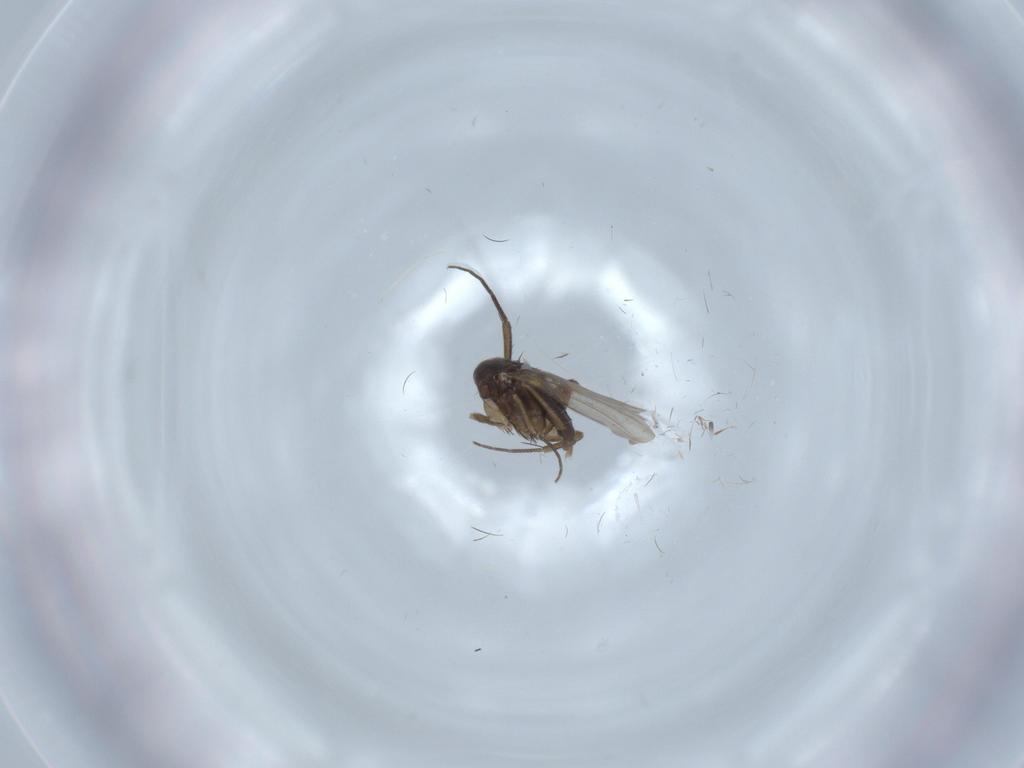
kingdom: Animalia
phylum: Arthropoda
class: Insecta
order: Diptera
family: Phoridae
